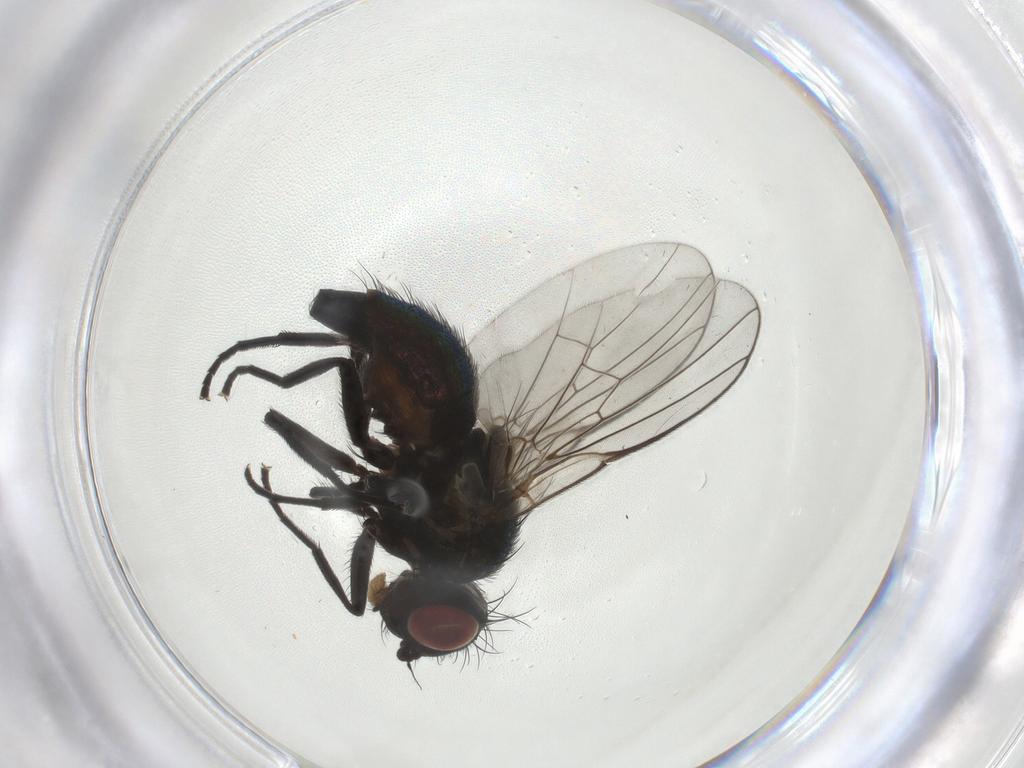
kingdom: Animalia
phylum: Arthropoda
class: Insecta
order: Diptera
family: Agromyzidae
